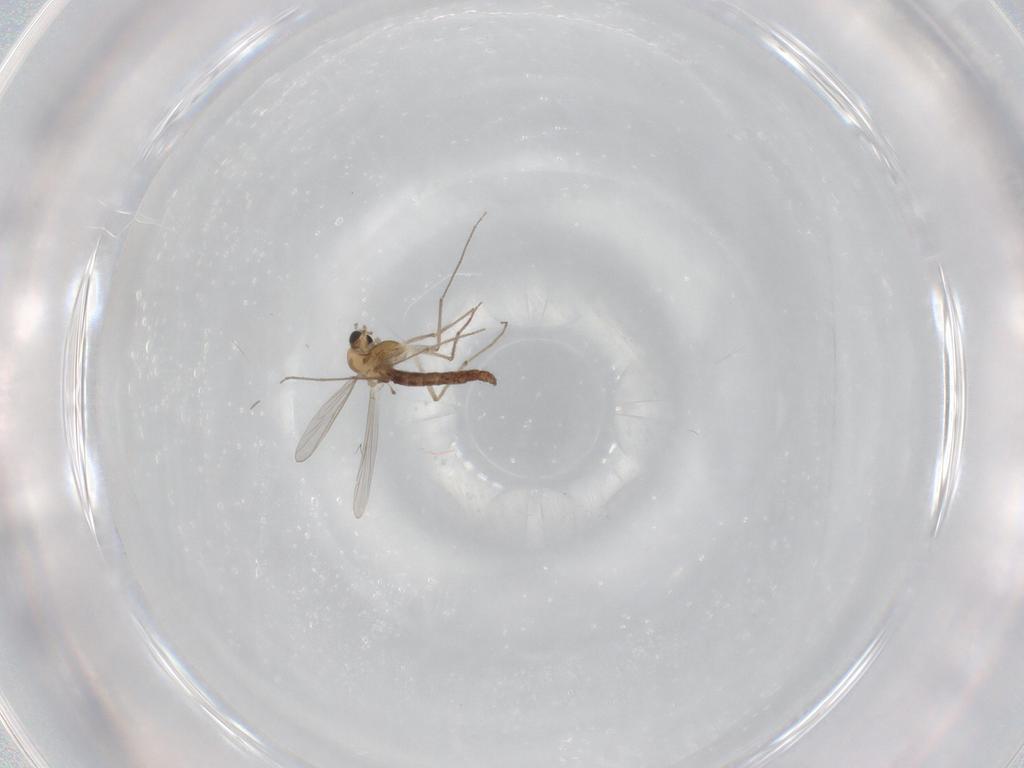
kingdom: Animalia
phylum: Arthropoda
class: Insecta
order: Diptera
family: Chironomidae
